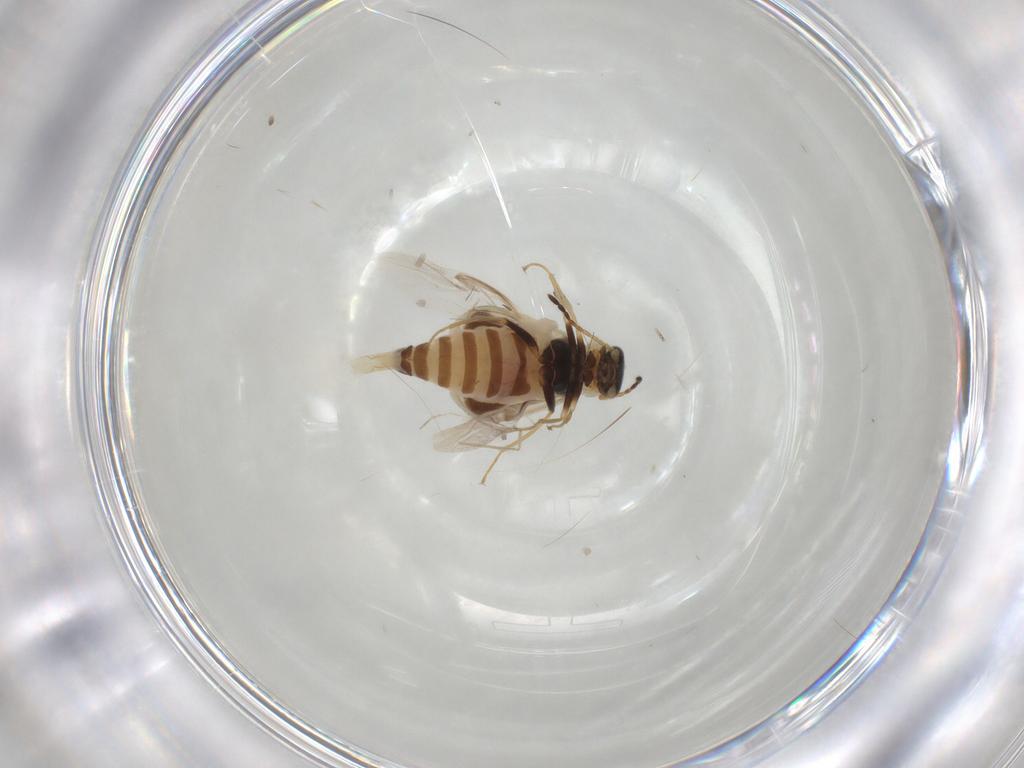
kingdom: Animalia
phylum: Arthropoda
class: Insecta
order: Coleoptera
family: Melyridae
